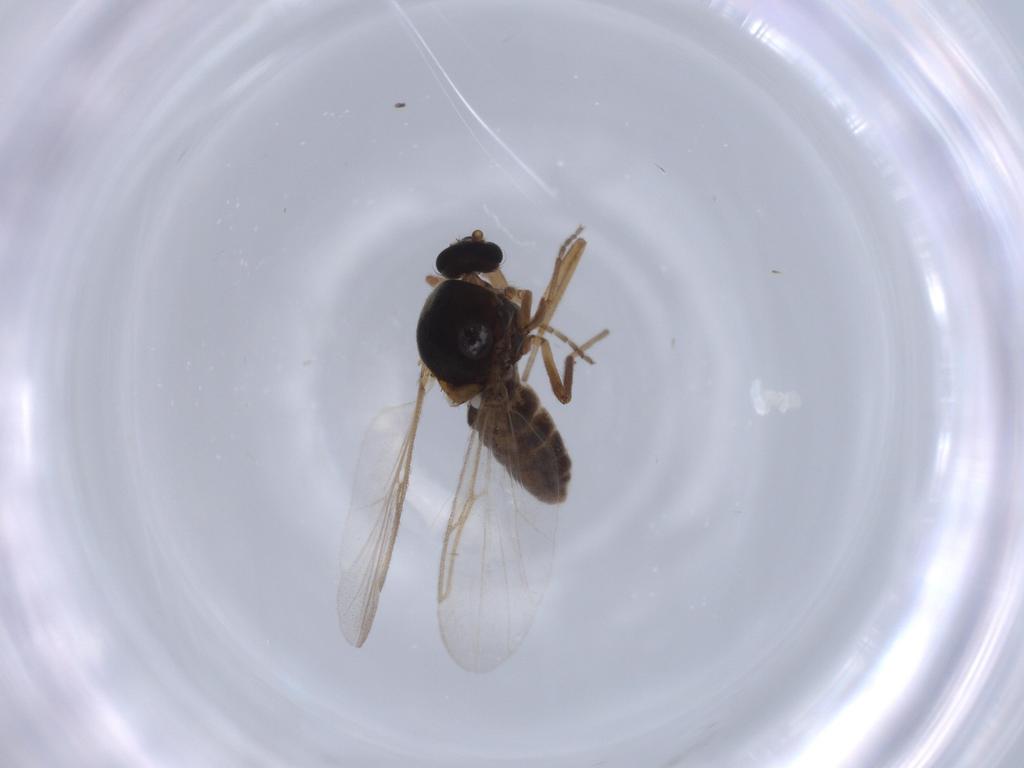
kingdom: Animalia
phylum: Arthropoda
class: Insecta
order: Diptera
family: Ceratopogonidae
